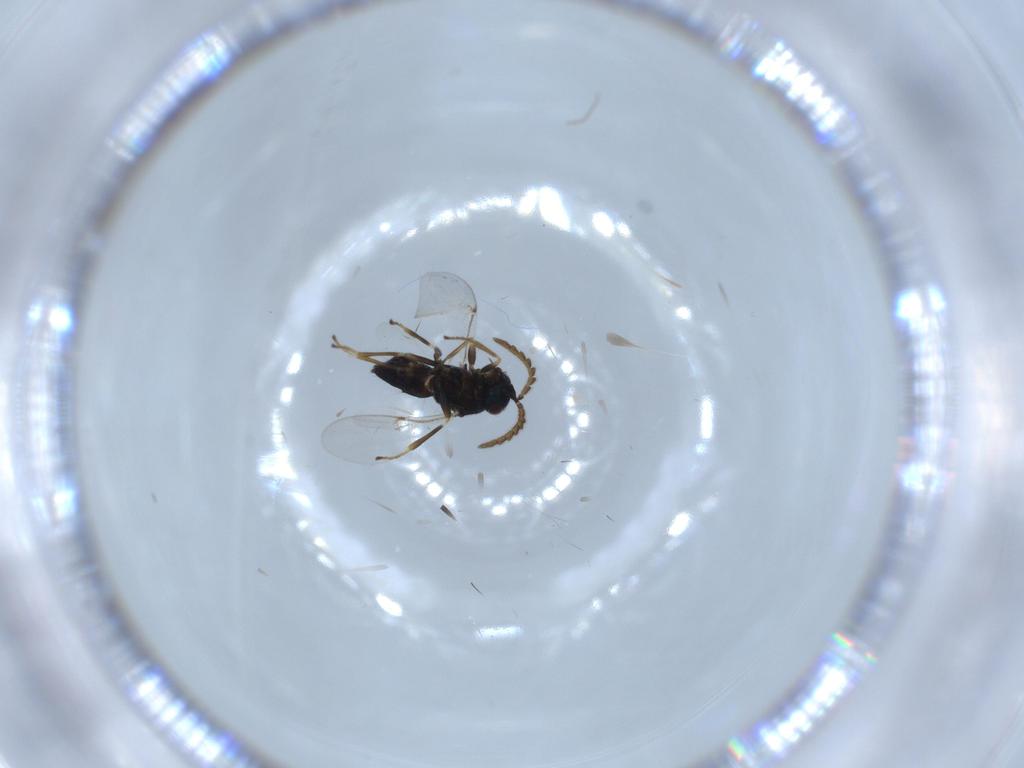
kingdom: Animalia
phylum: Arthropoda
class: Insecta
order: Hymenoptera
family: Encyrtidae
